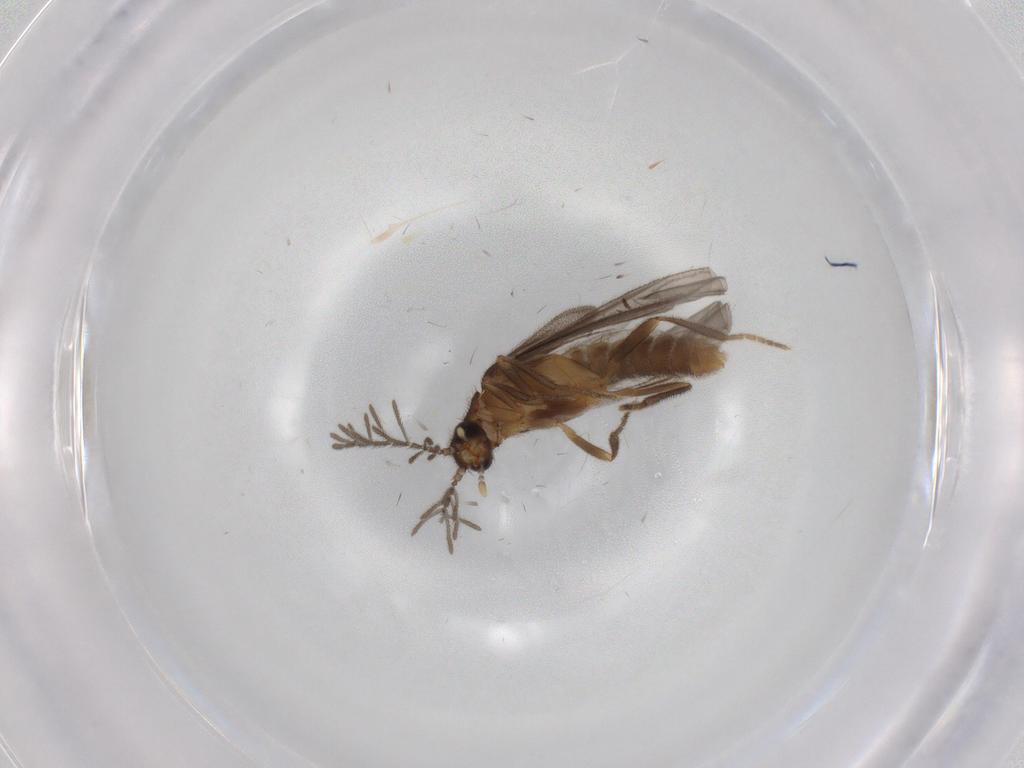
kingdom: Animalia
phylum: Arthropoda
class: Insecta
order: Coleoptera
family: Scarabaeidae
